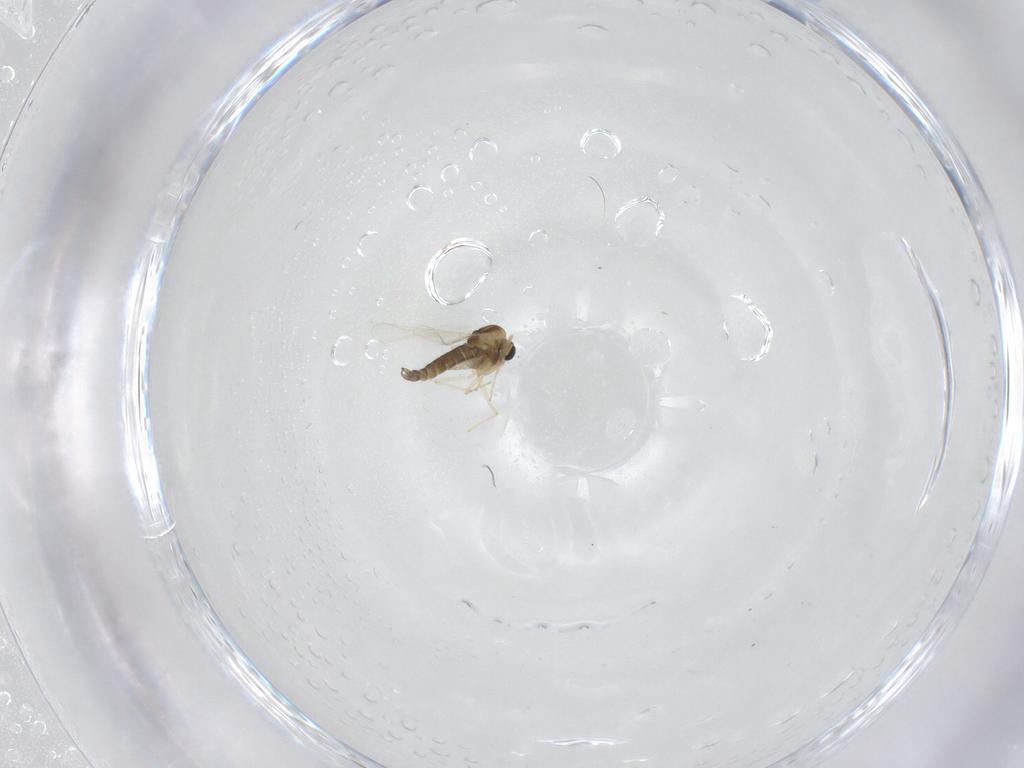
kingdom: Animalia
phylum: Arthropoda
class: Insecta
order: Diptera
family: Chironomidae
